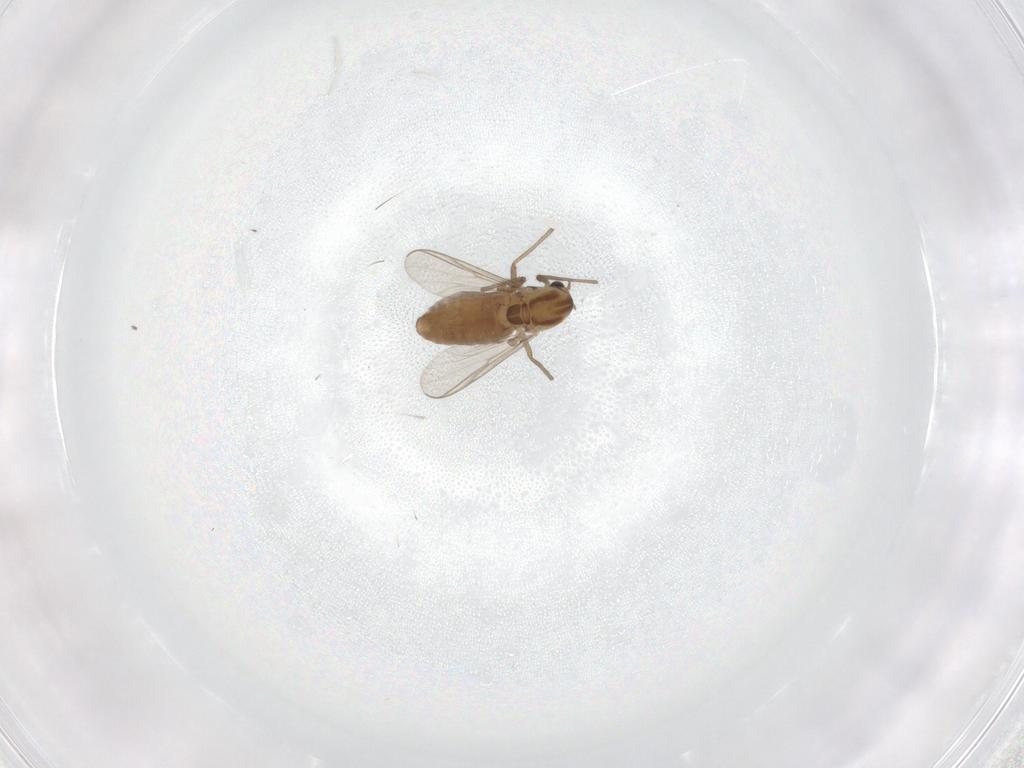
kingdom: Animalia
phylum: Arthropoda
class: Insecta
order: Diptera
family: Chironomidae
